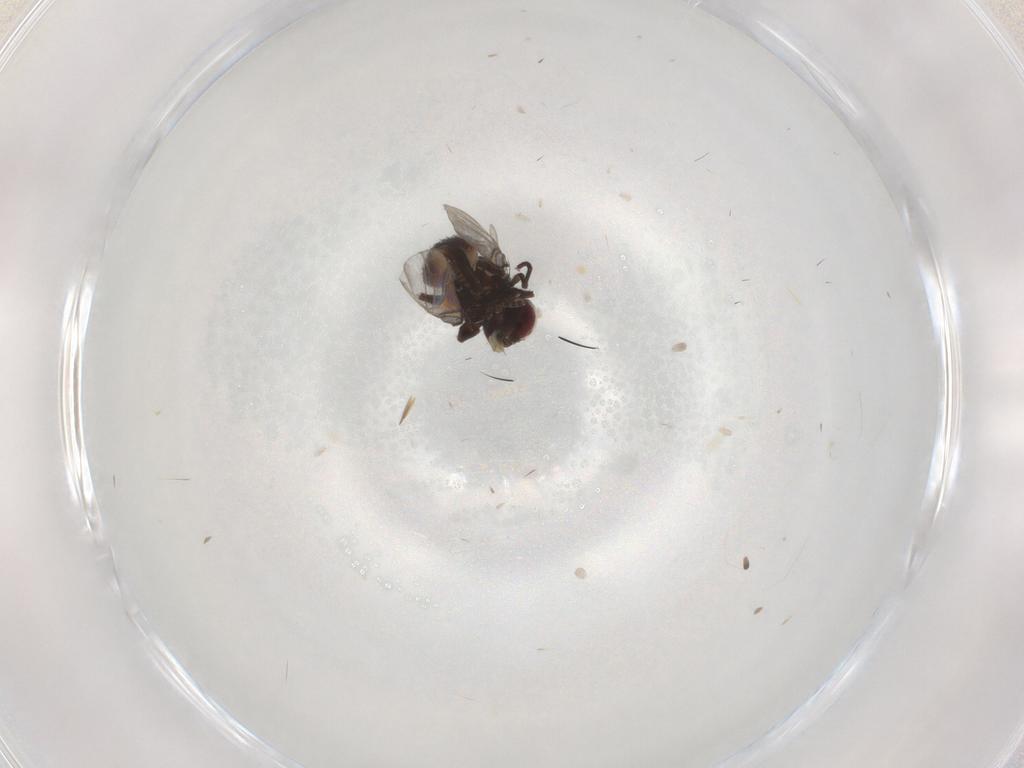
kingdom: Animalia
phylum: Arthropoda
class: Insecta
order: Diptera
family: Agromyzidae
